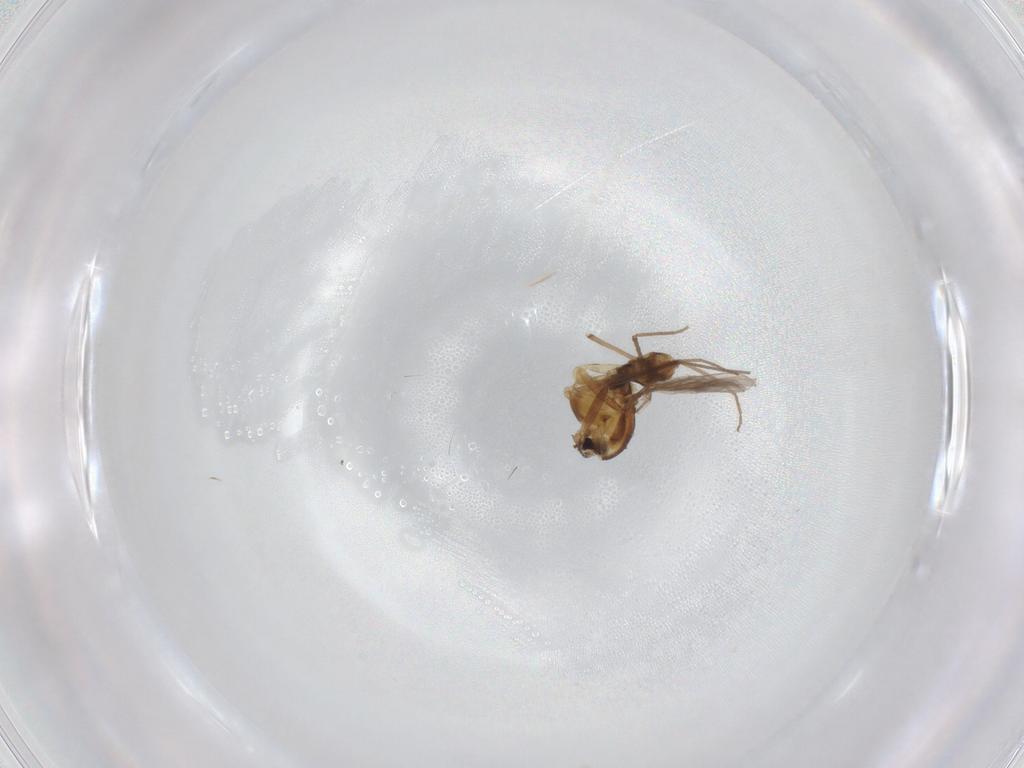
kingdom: Animalia
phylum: Arthropoda
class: Insecta
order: Diptera
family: Chironomidae
